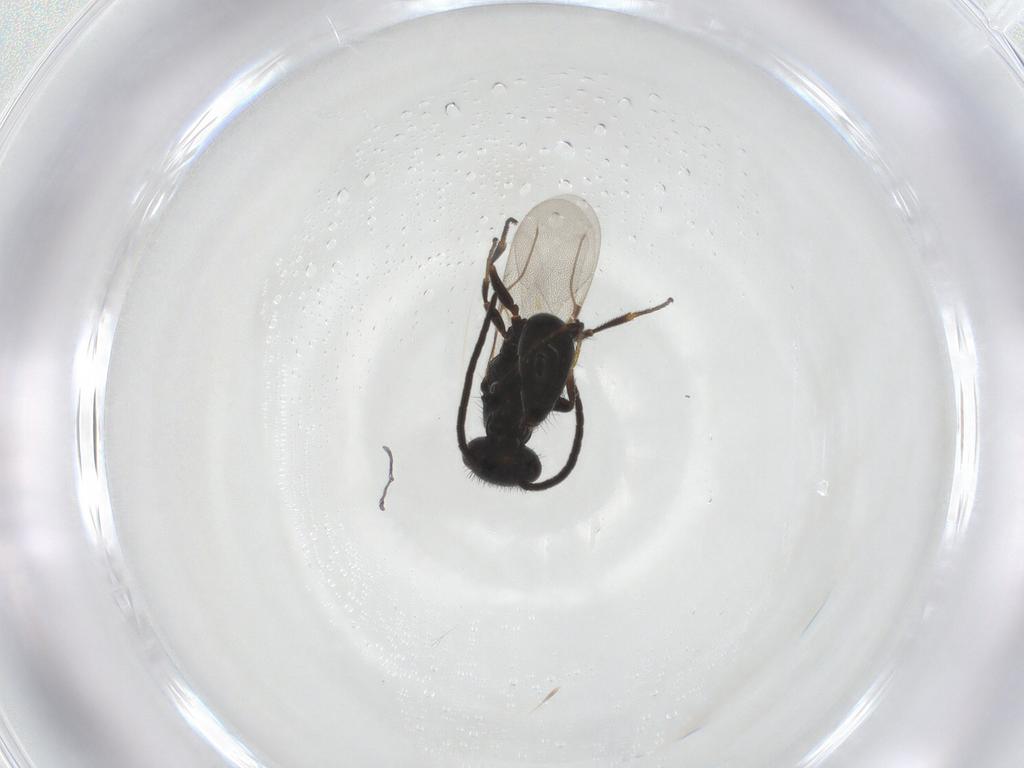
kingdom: Animalia
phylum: Arthropoda
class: Insecta
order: Hymenoptera
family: Bethylidae
